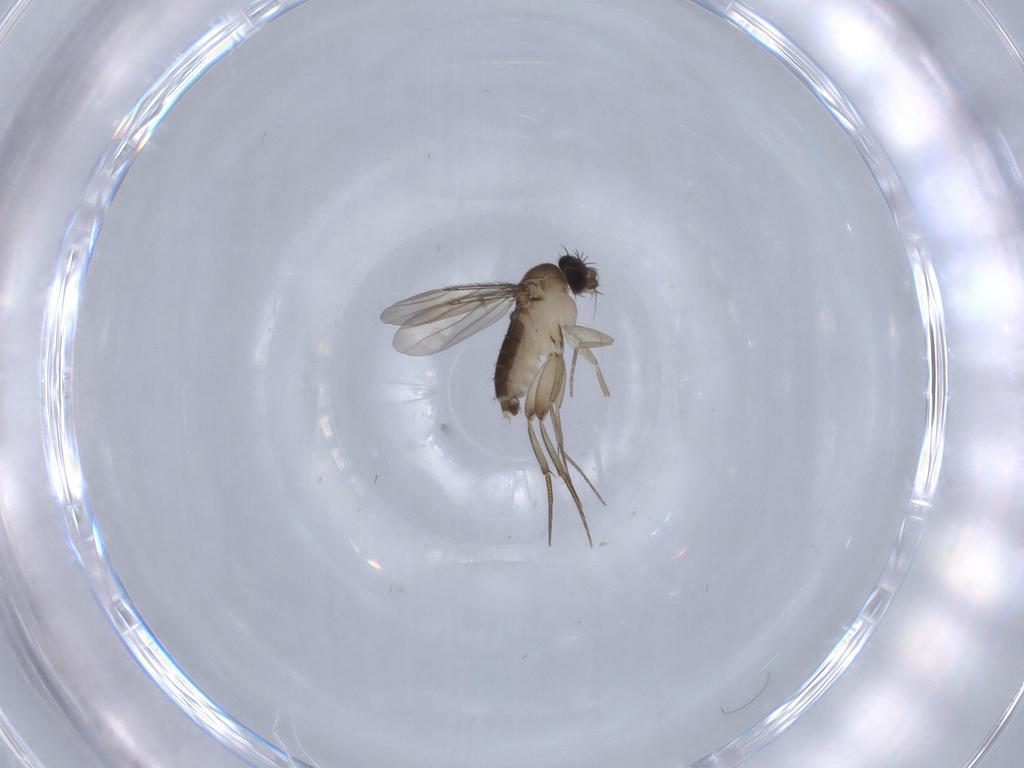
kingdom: Animalia
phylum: Arthropoda
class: Insecta
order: Diptera
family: Phoridae
